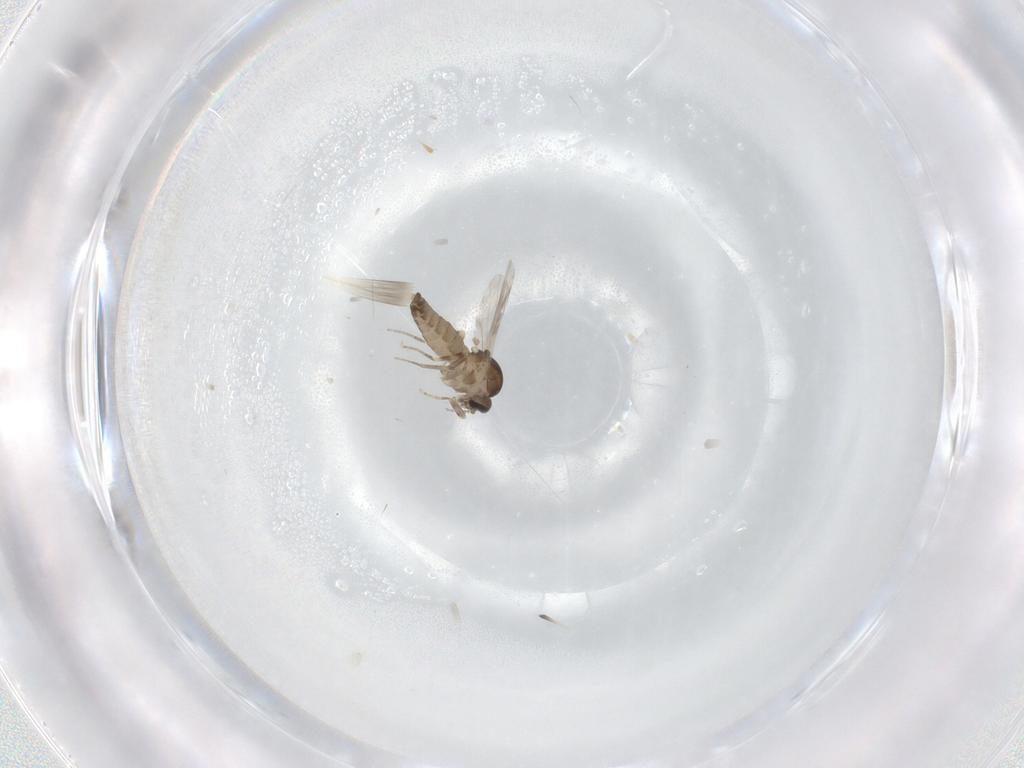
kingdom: Animalia
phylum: Arthropoda
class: Insecta
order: Diptera
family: Ceratopogonidae
